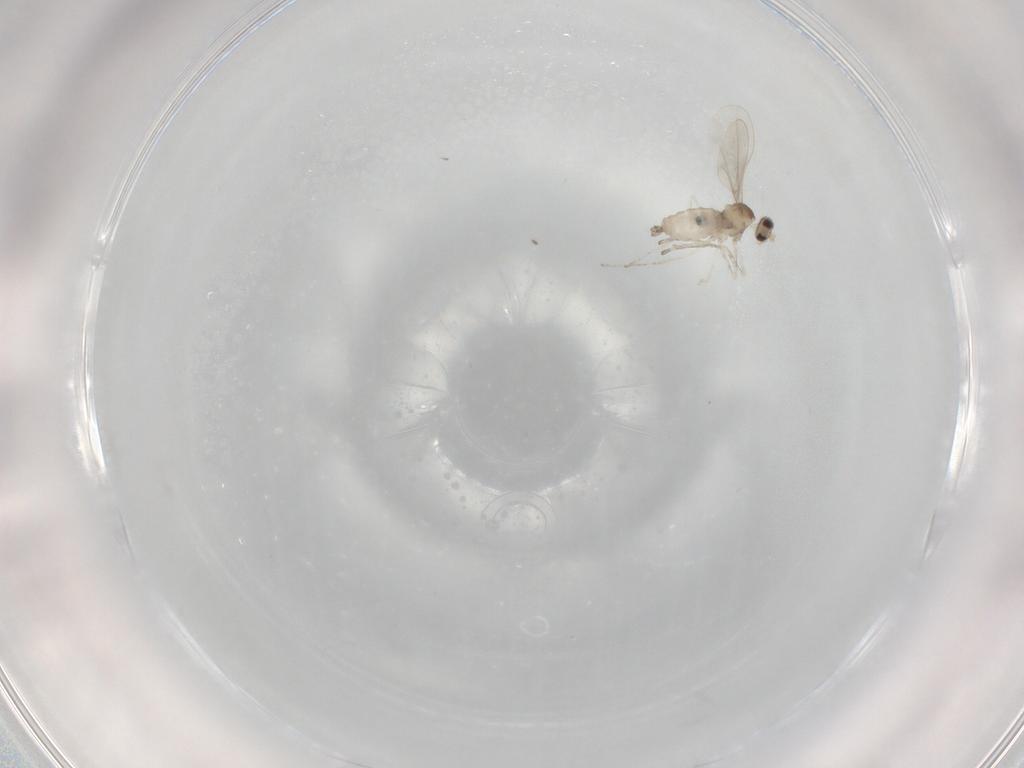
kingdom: Animalia
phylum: Arthropoda
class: Insecta
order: Diptera
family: Cecidomyiidae
